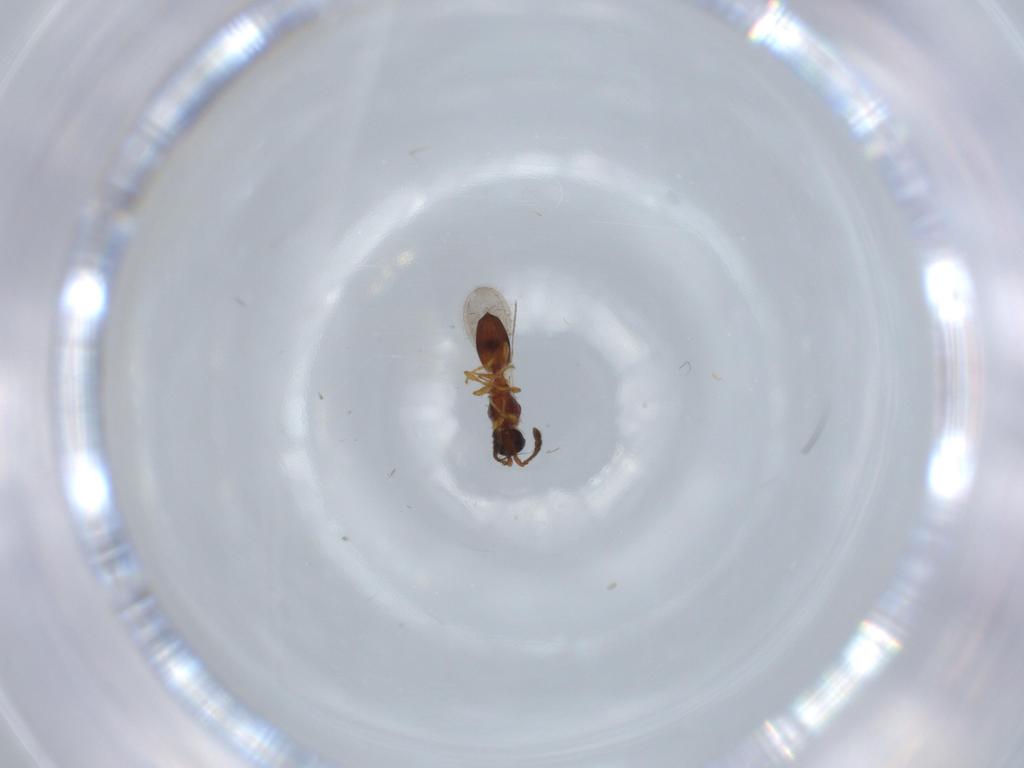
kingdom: Animalia
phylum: Arthropoda
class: Insecta
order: Hymenoptera
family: Diapriidae
